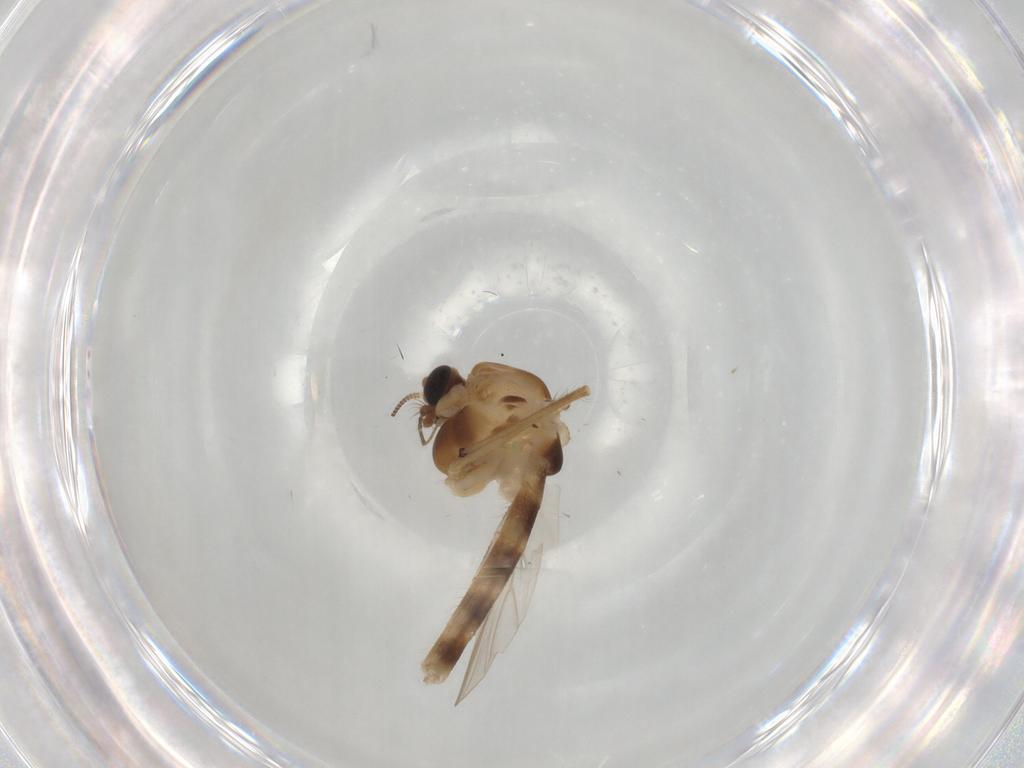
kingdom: Animalia
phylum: Arthropoda
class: Insecta
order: Diptera
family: Chironomidae
